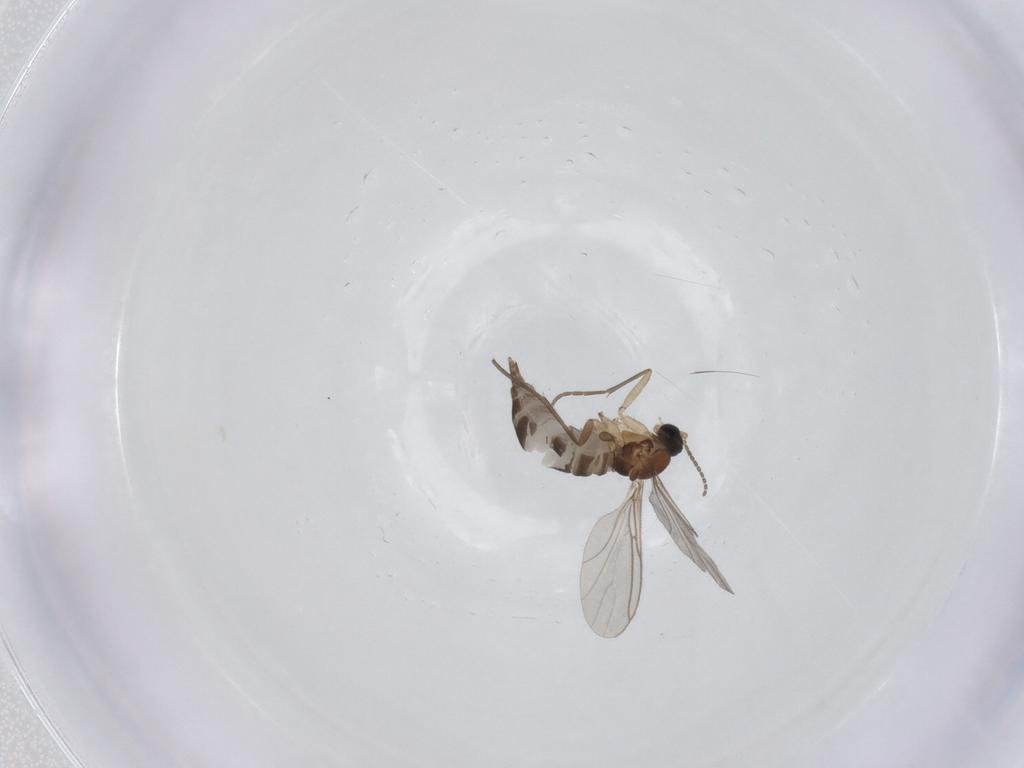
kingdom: Animalia
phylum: Arthropoda
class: Insecta
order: Diptera
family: Sciaridae
